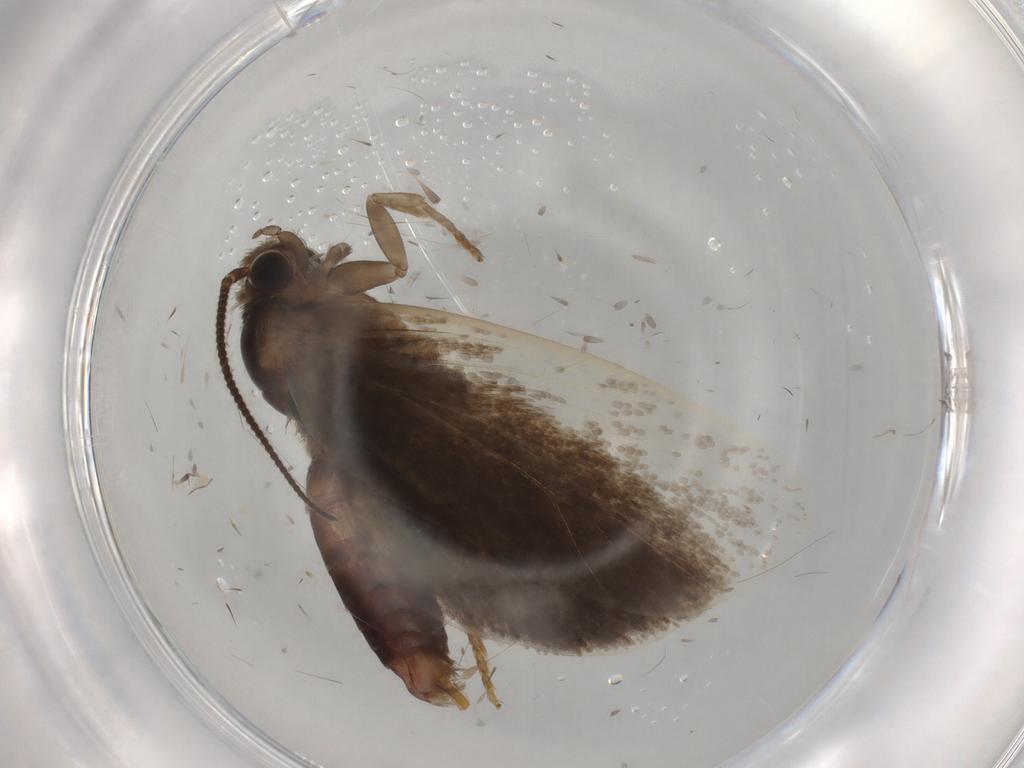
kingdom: Animalia
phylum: Arthropoda
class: Insecta
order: Lepidoptera
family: Tineidae
